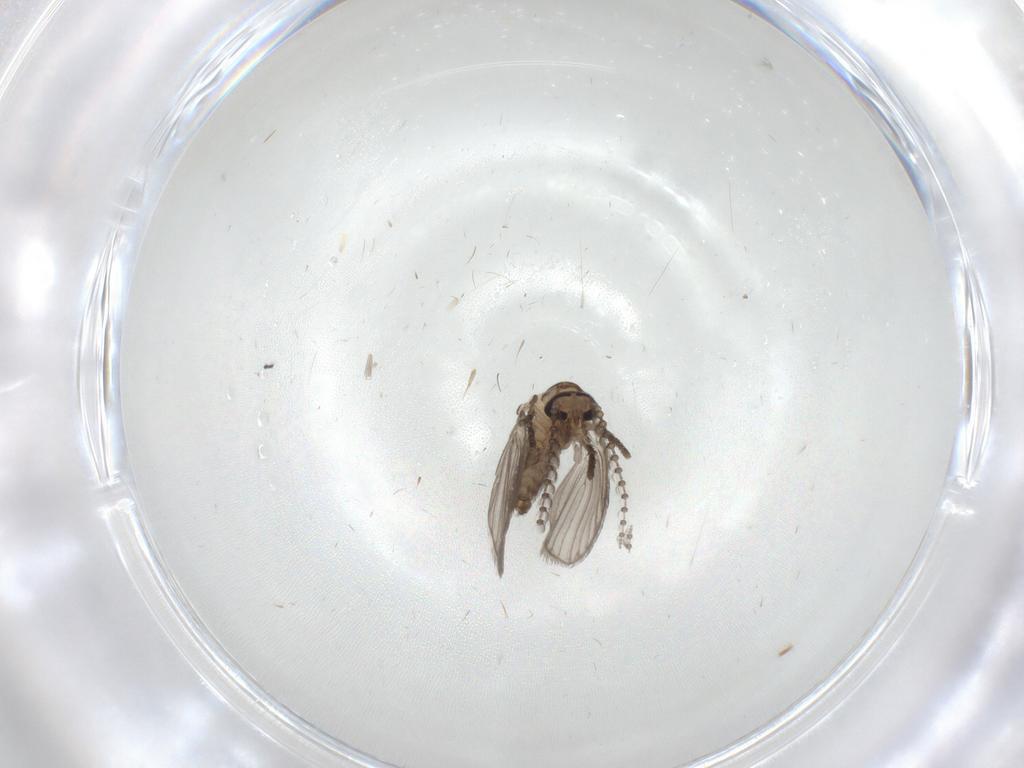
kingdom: Animalia
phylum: Arthropoda
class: Insecta
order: Diptera
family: Psychodidae
